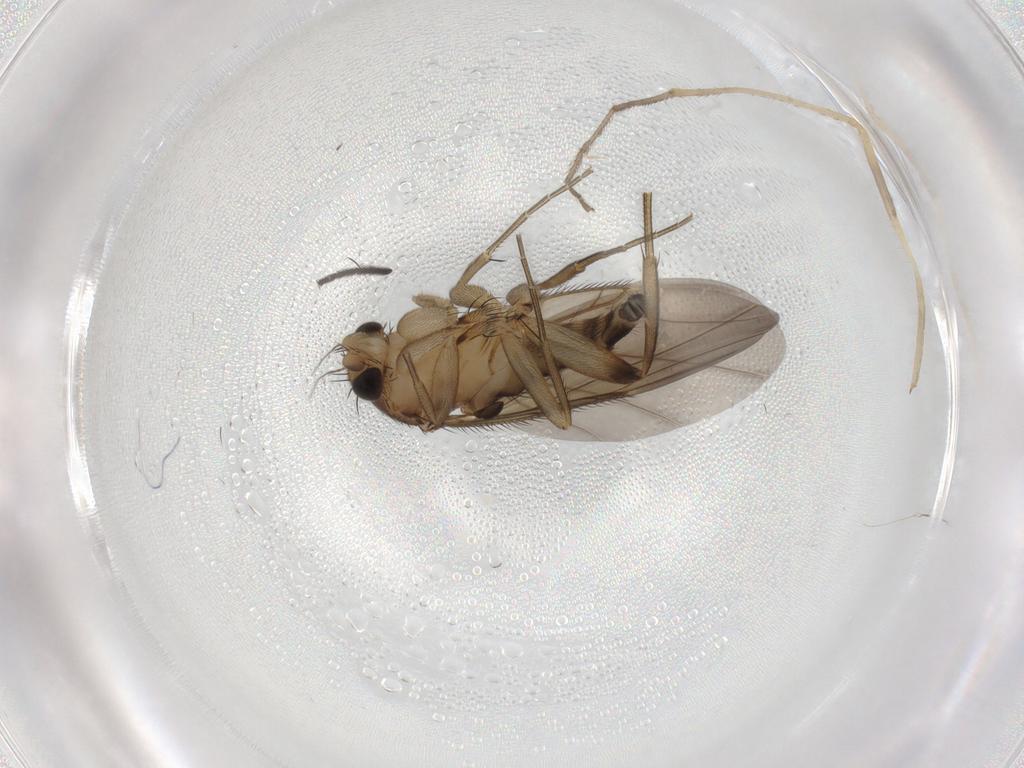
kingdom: Animalia
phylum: Arthropoda
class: Insecta
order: Diptera
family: Phoridae
